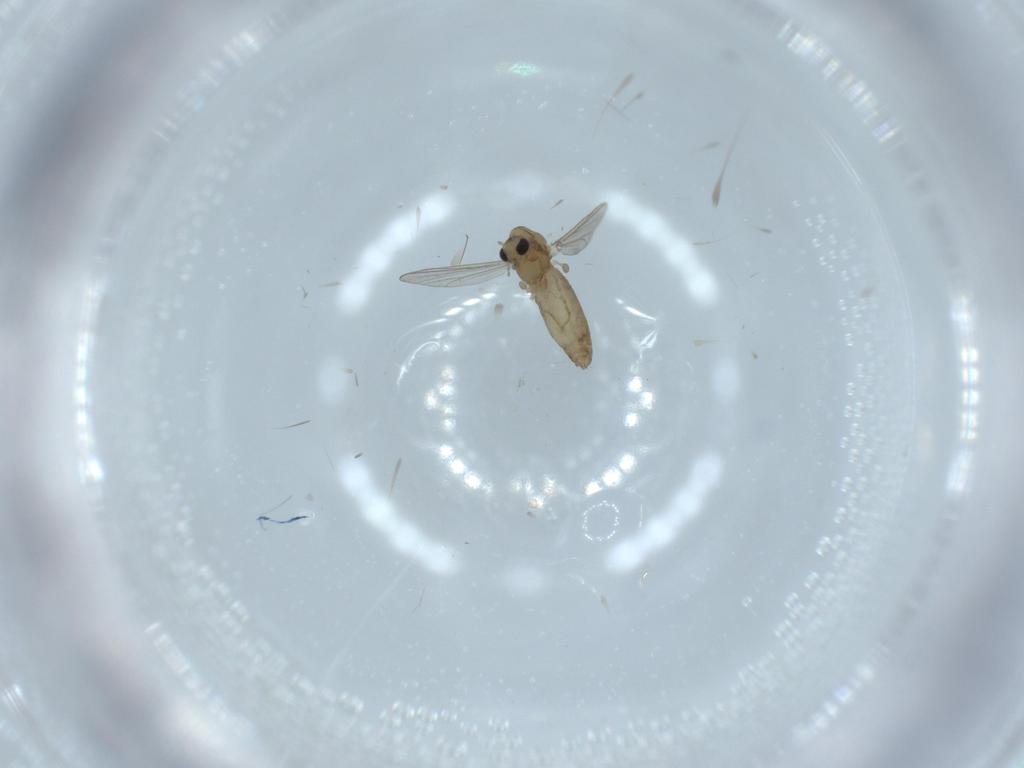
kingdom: Animalia
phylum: Arthropoda
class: Insecta
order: Diptera
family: Chironomidae
